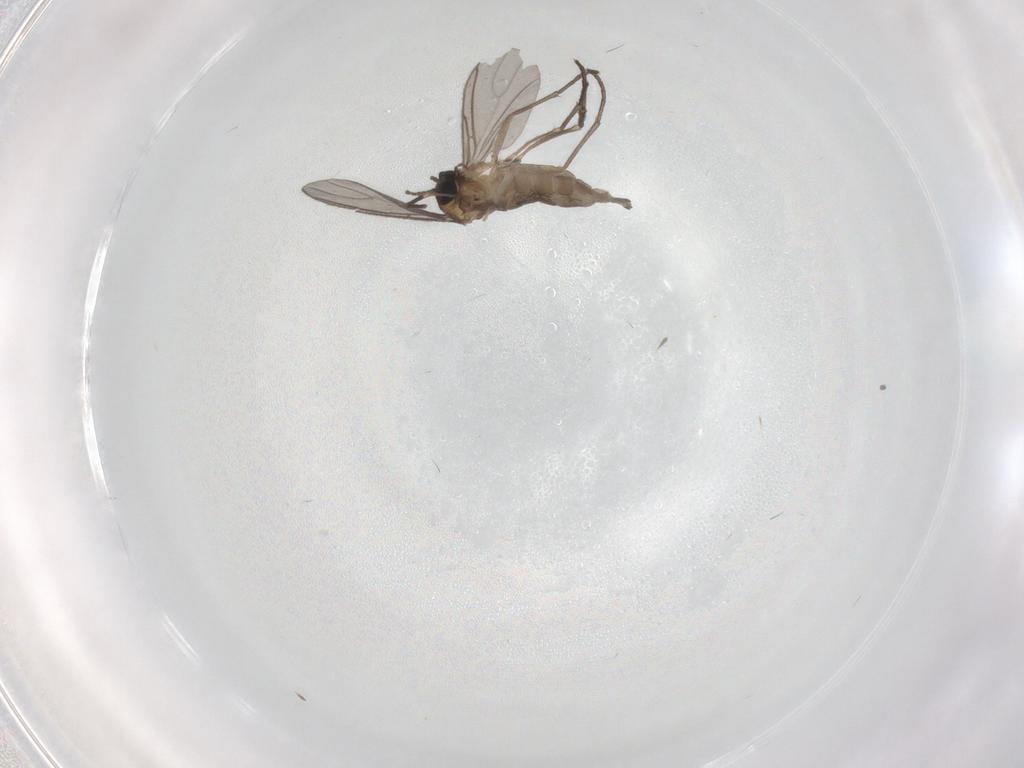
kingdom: Animalia
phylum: Arthropoda
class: Insecta
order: Diptera
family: Sciaridae
